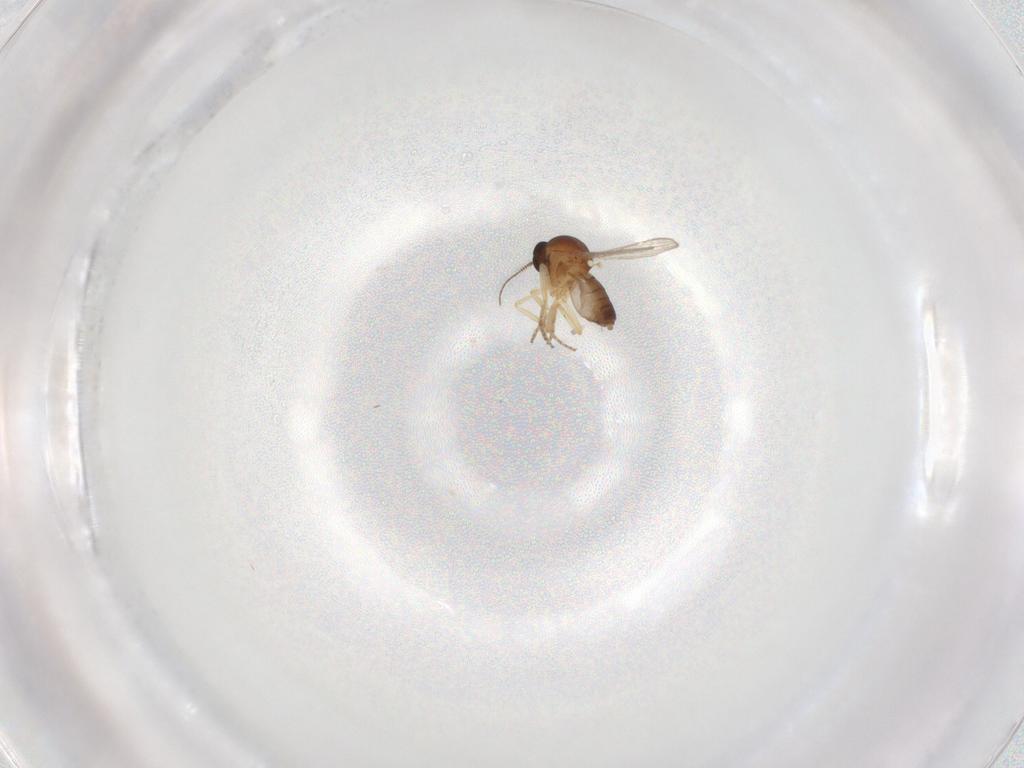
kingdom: Animalia
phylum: Arthropoda
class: Insecta
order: Diptera
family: Ceratopogonidae
